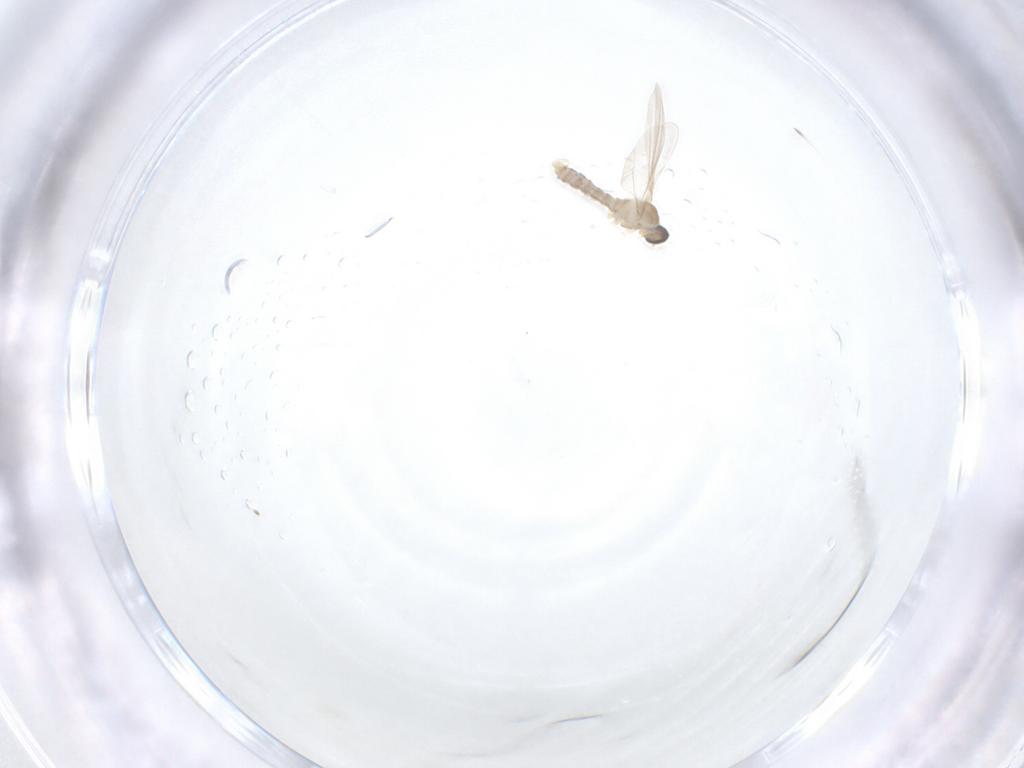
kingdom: Animalia
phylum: Arthropoda
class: Insecta
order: Diptera
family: Cecidomyiidae
